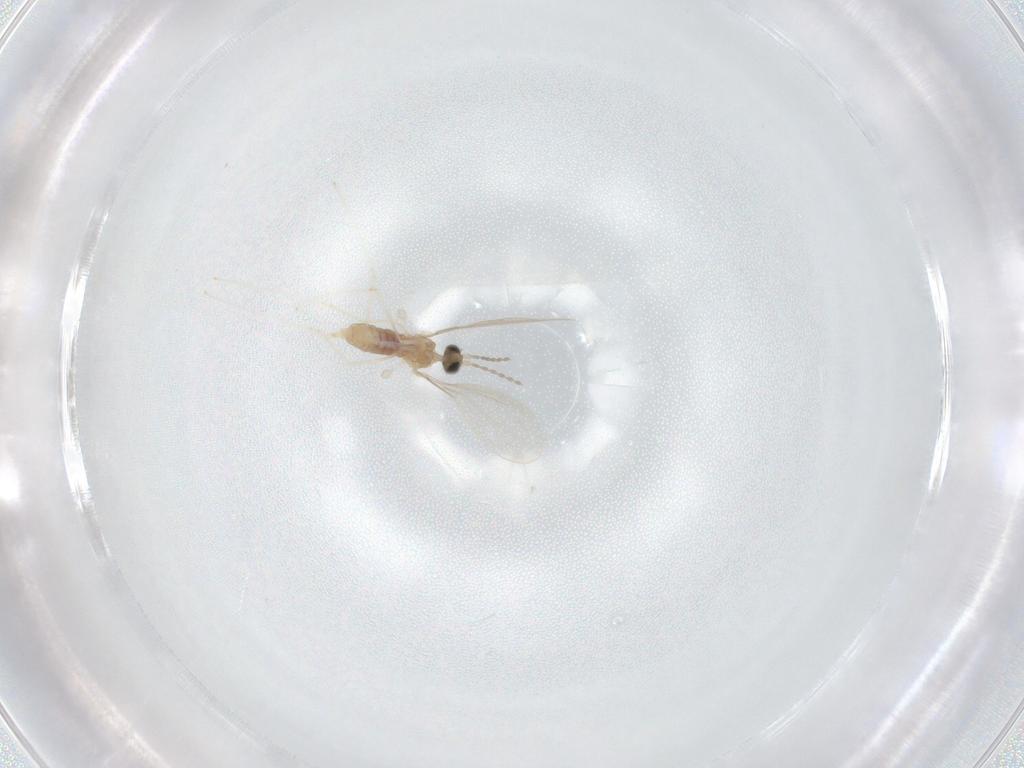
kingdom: Animalia
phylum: Arthropoda
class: Insecta
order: Diptera
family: Cecidomyiidae
